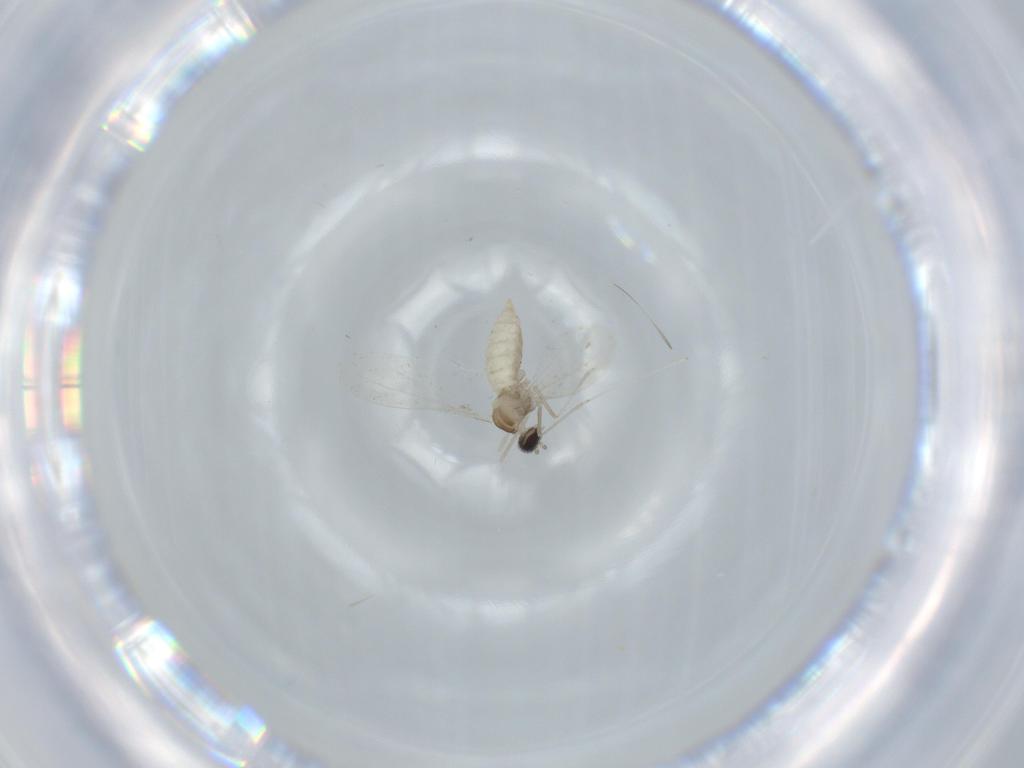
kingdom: Animalia
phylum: Arthropoda
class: Insecta
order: Diptera
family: Cecidomyiidae
